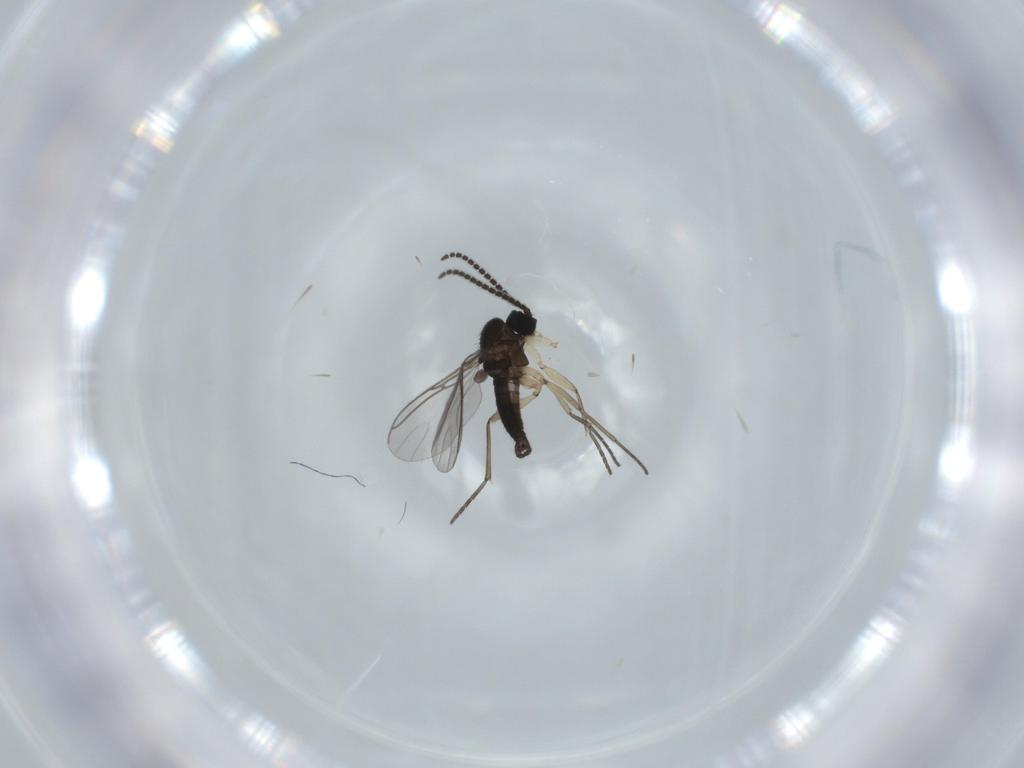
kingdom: Animalia
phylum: Arthropoda
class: Insecta
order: Diptera
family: Sciaridae
